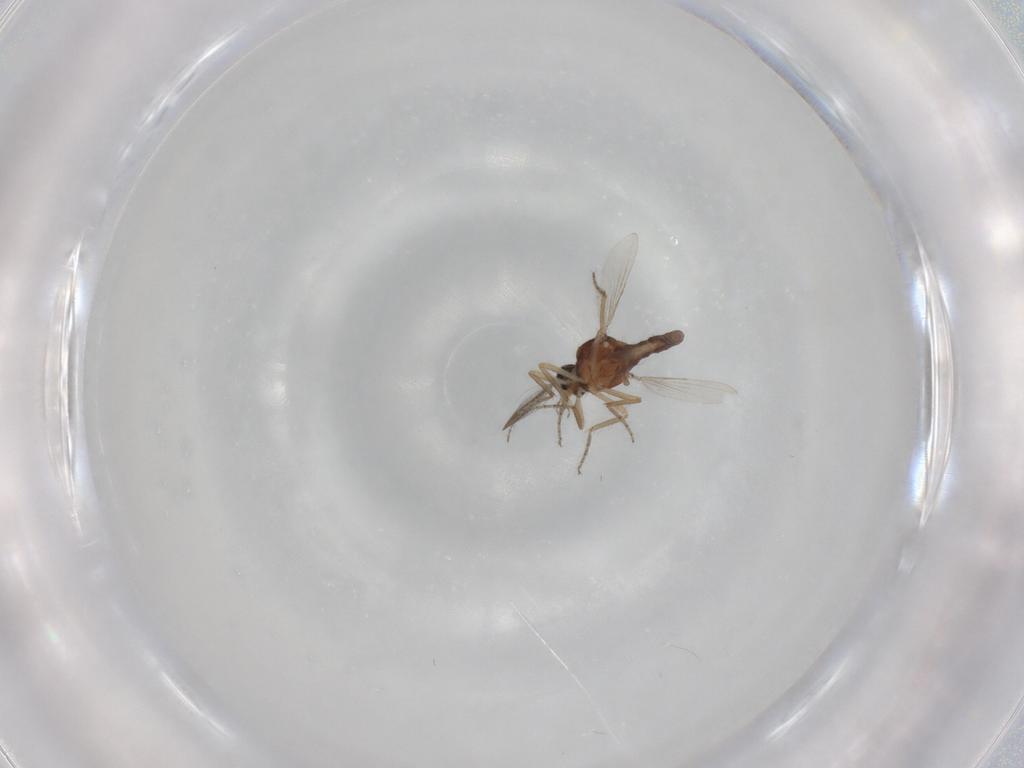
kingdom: Animalia
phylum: Arthropoda
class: Insecta
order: Diptera
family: Ceratopogonidae
